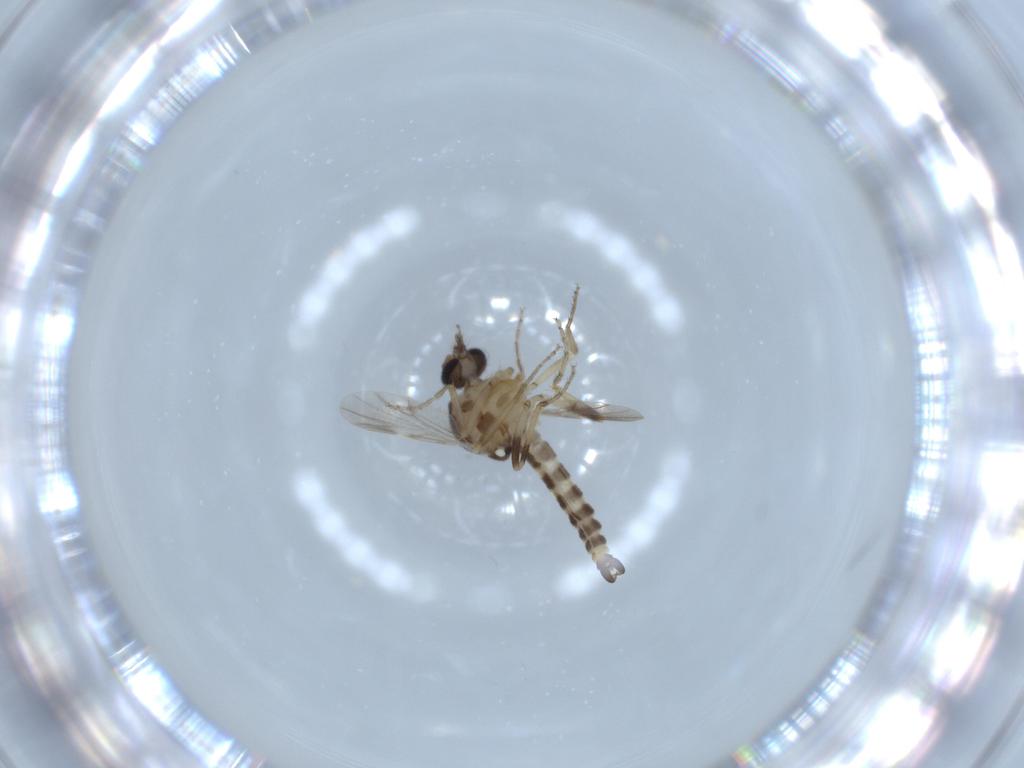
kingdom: Animalia
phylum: Arthropoda
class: Insecta
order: Diptera
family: Ceratopogonidae
